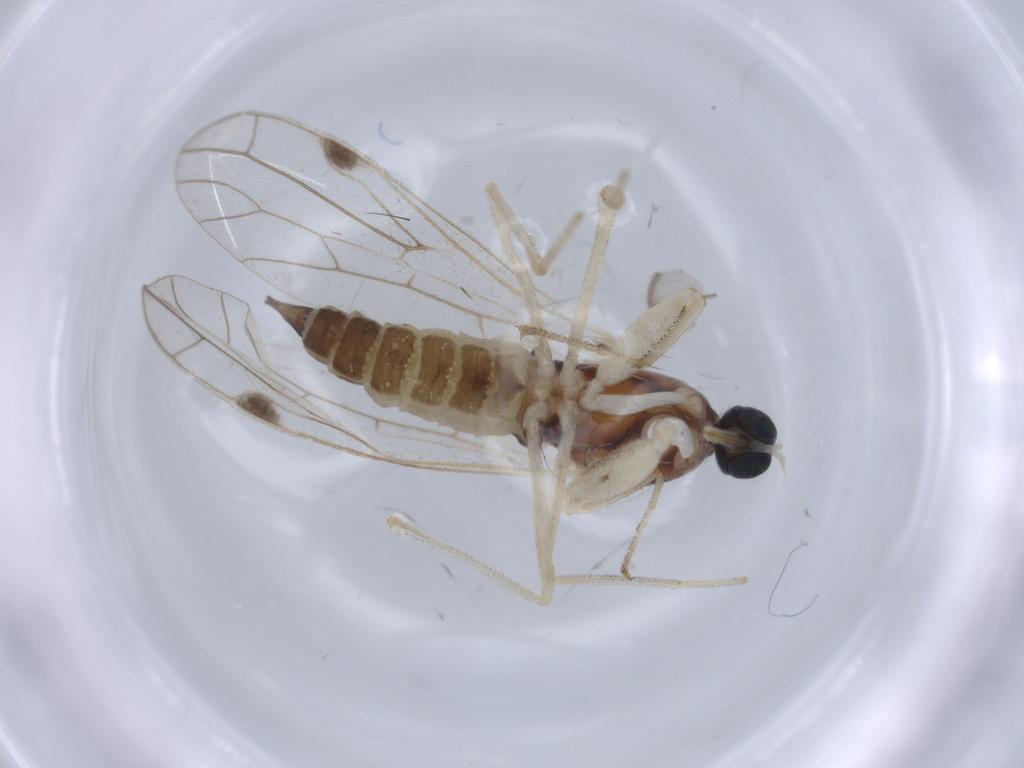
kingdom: Animalia
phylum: Arthropoda
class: Insecta
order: Diptera
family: Empididae
